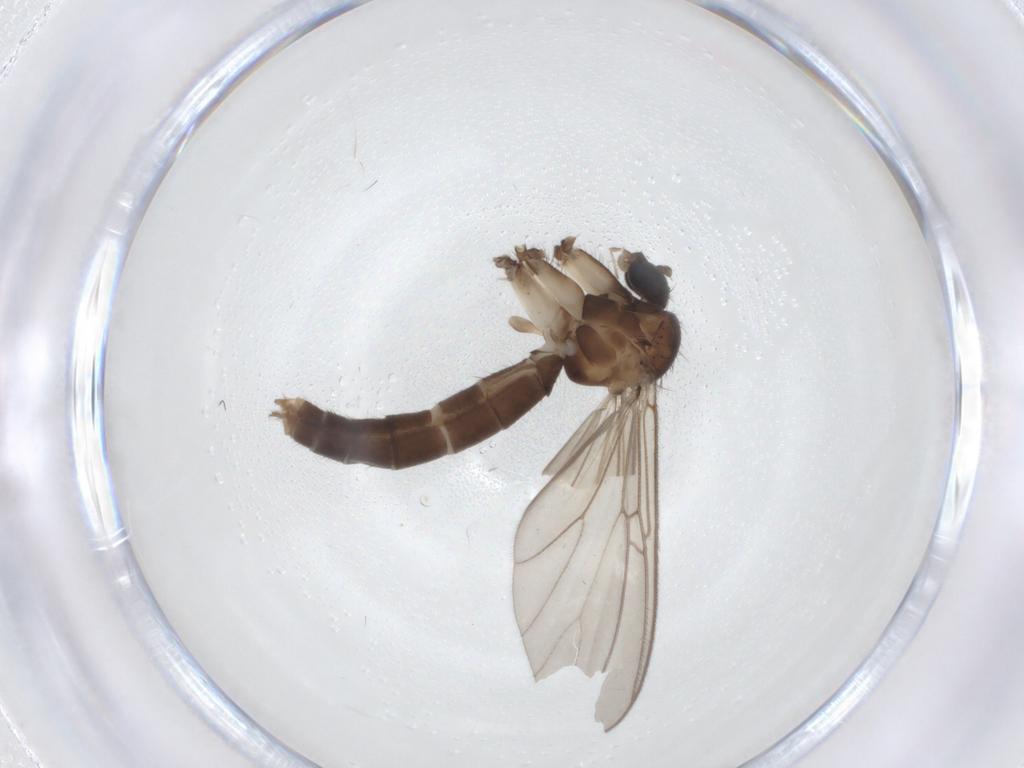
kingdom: Animalia
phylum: Arthropoda
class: Insecta
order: Diptera
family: Mycetophilidae
